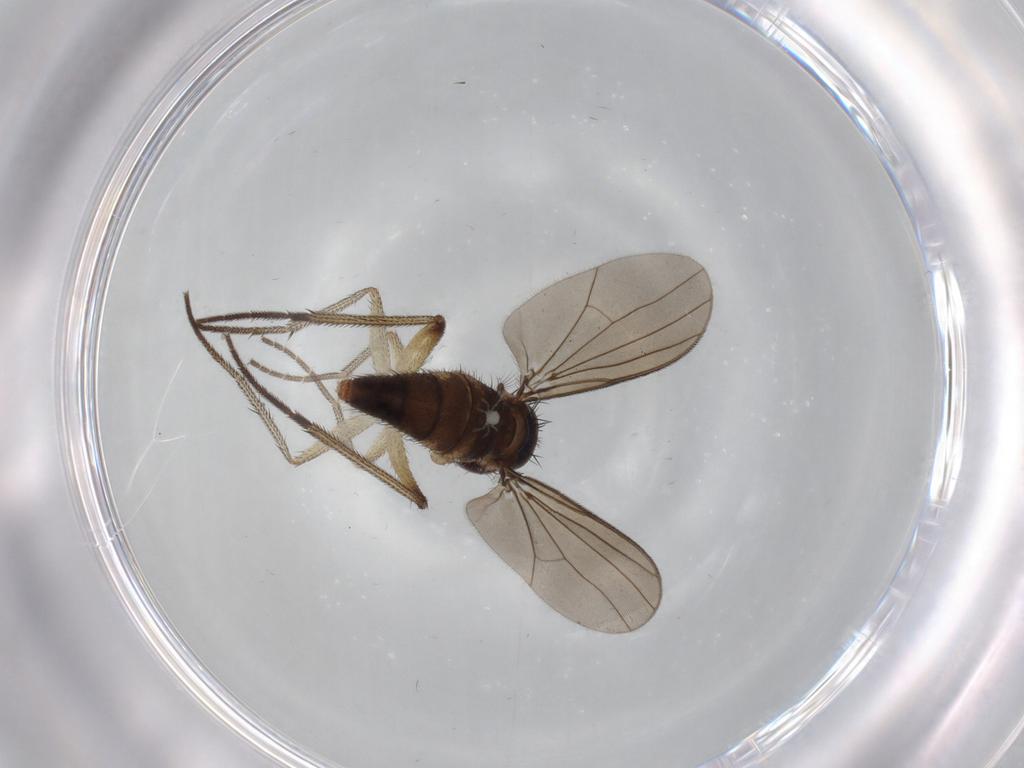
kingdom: Animalia
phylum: Arthropoda
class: Insecta
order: Diptera
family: Dolichopodidae
